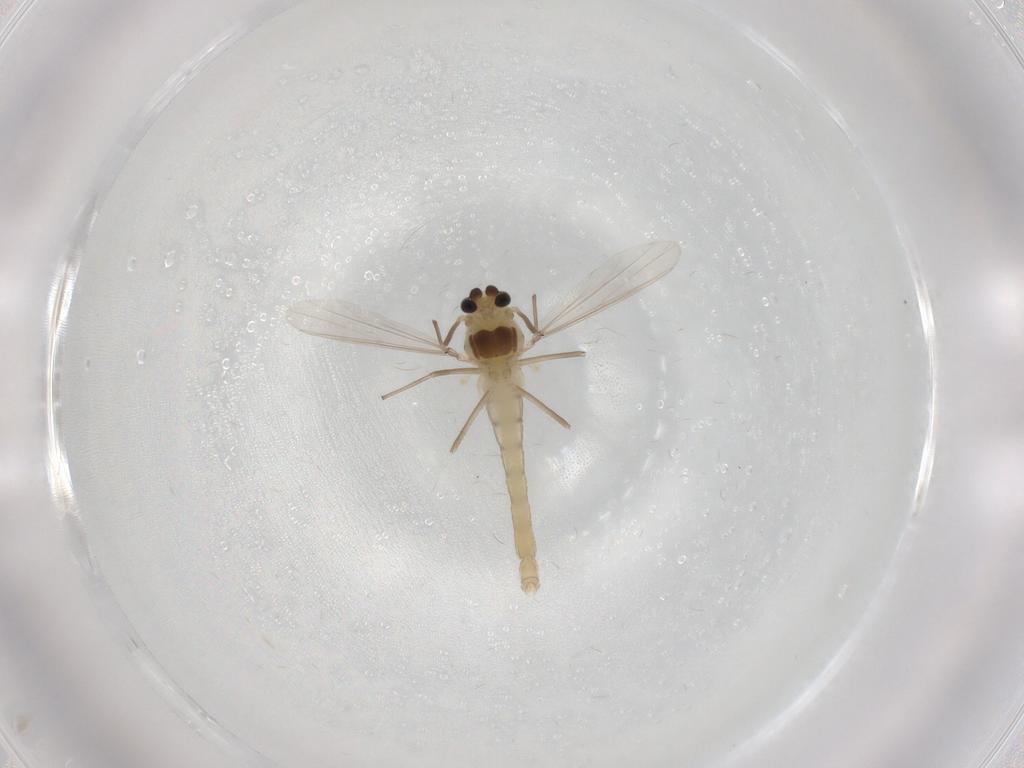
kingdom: Animalia
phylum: Arthropoda
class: Insecta
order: Diptera
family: Chironomidae
